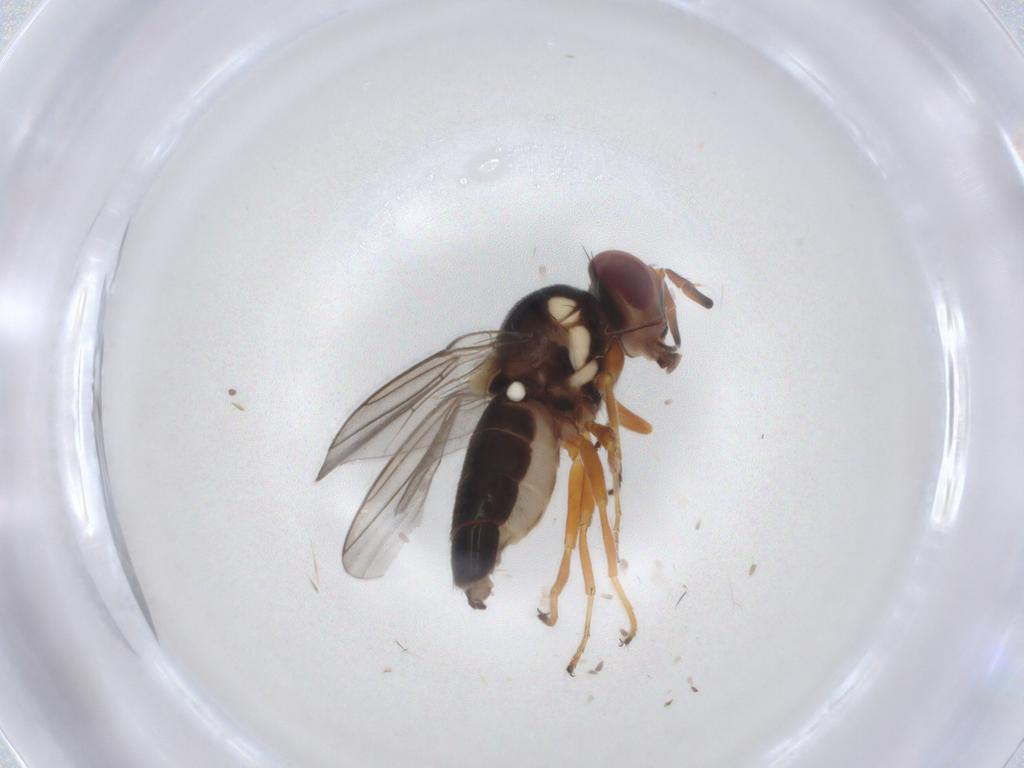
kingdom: Animalia
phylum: Arthropoda
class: Insecta
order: Diptera
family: Chloropidae
